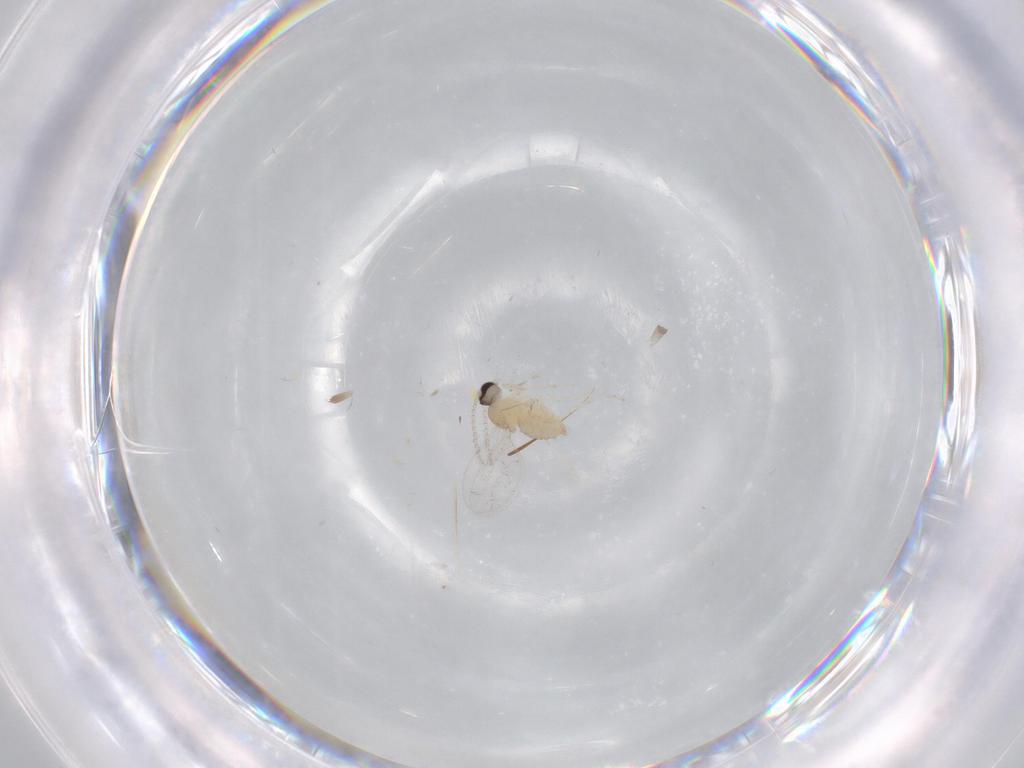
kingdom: Animalia
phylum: Arthropoda
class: Insecta
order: Diptera
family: Cecidomyiidae
